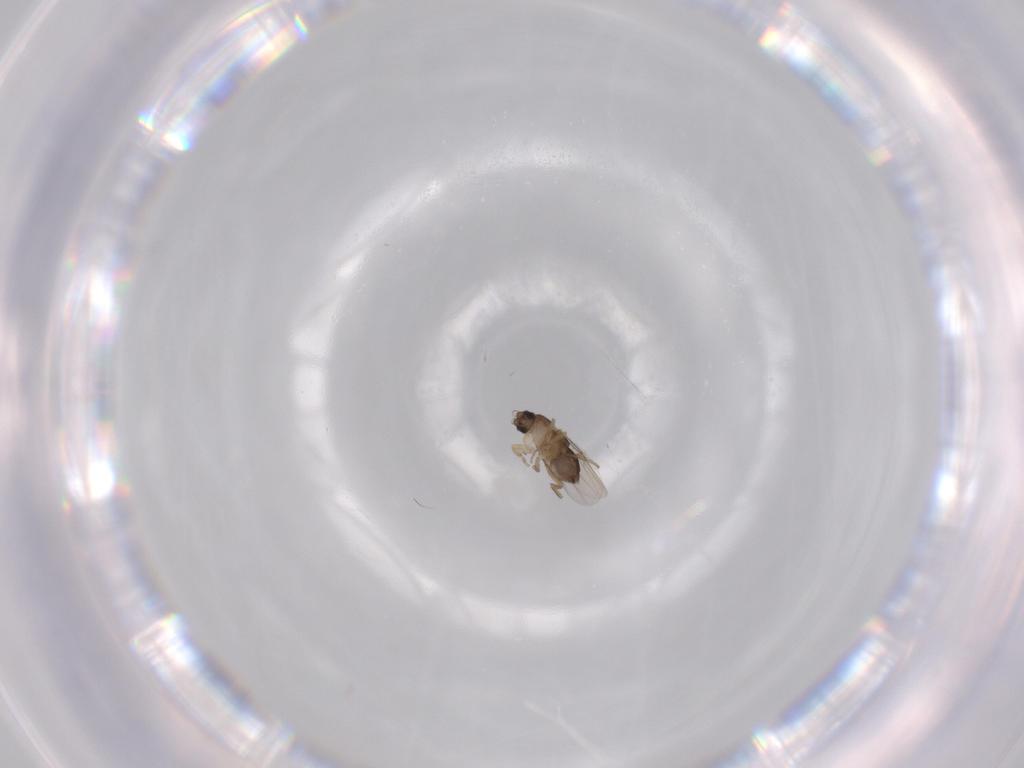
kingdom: Animalia
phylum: Arthropoda
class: Insecta
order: Diptera
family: Phoridae
